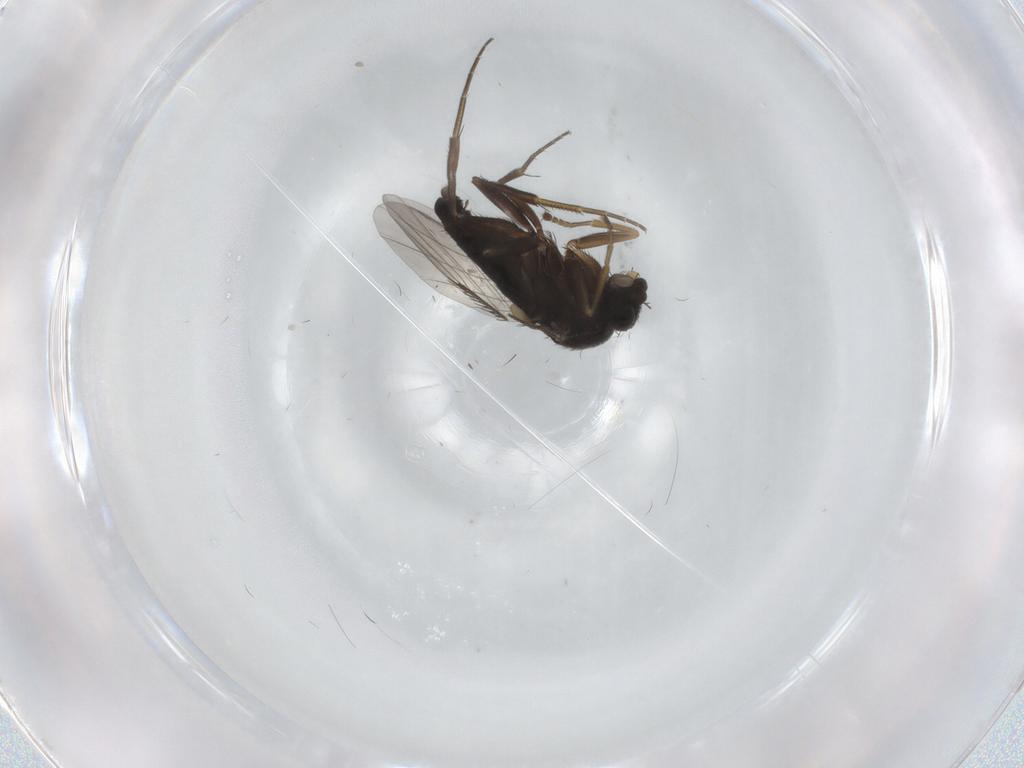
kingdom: Animalia
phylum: Arthropoda
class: Insecta
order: Diptera
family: Phoridae
